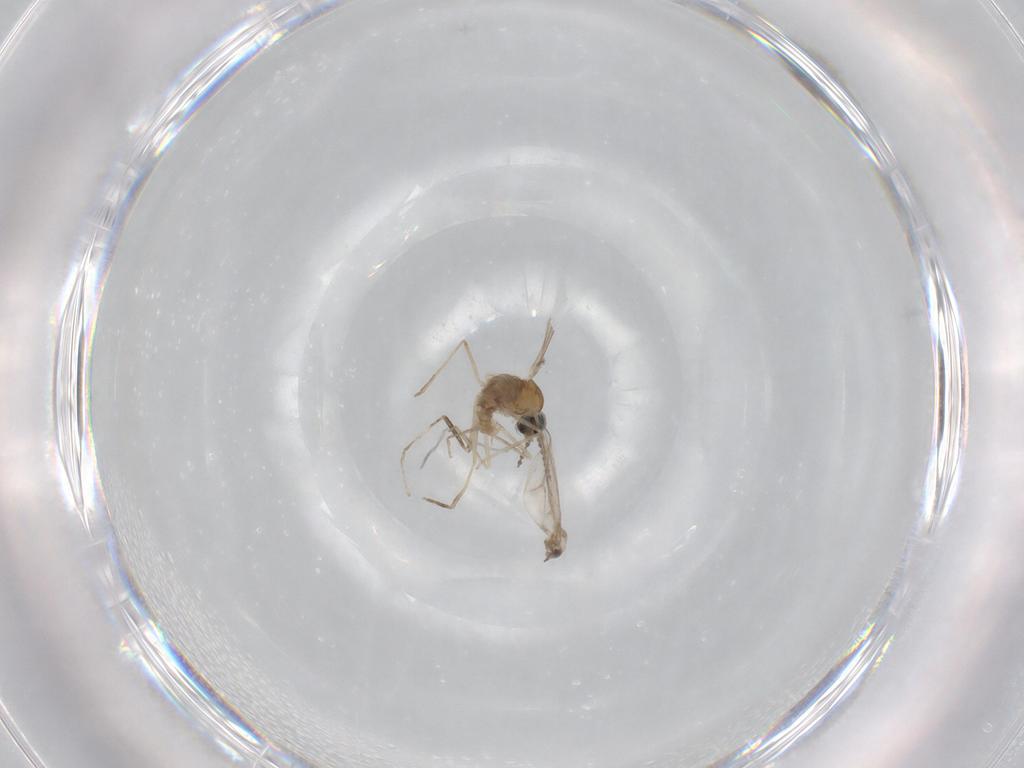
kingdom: Animalia
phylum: Arthropoda
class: Insecta
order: Diptera
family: Cecidomyiidae
